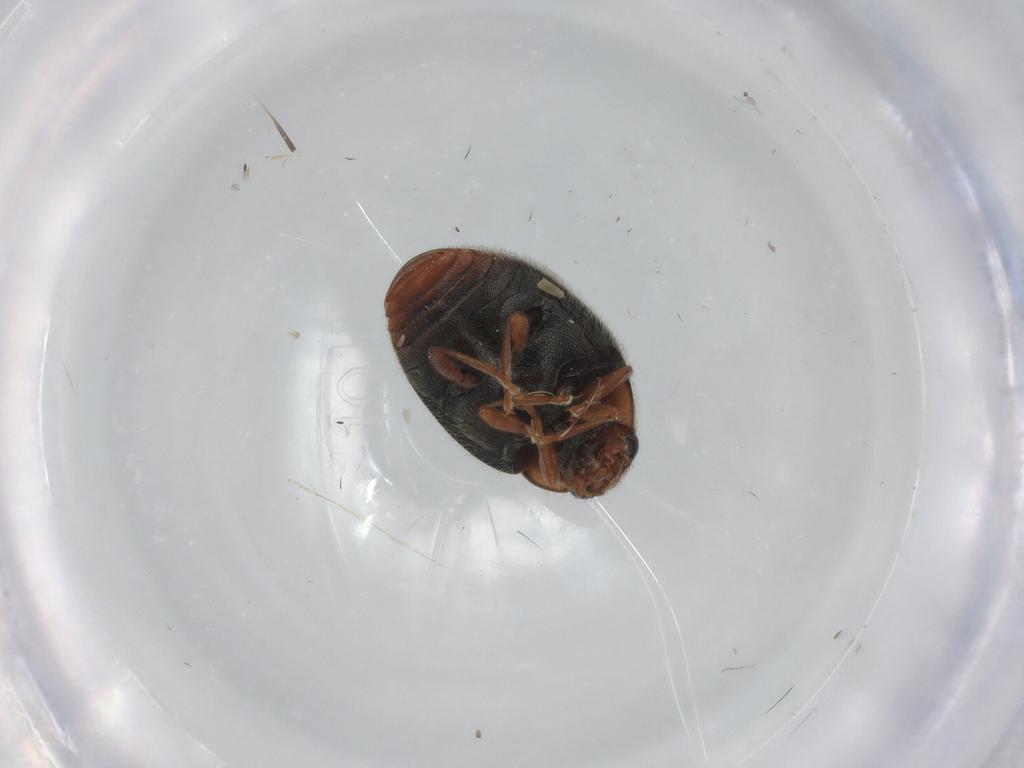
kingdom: Animalia
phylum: Arthropoda
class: Insecta
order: Coleoptera
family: Coccinellidae
